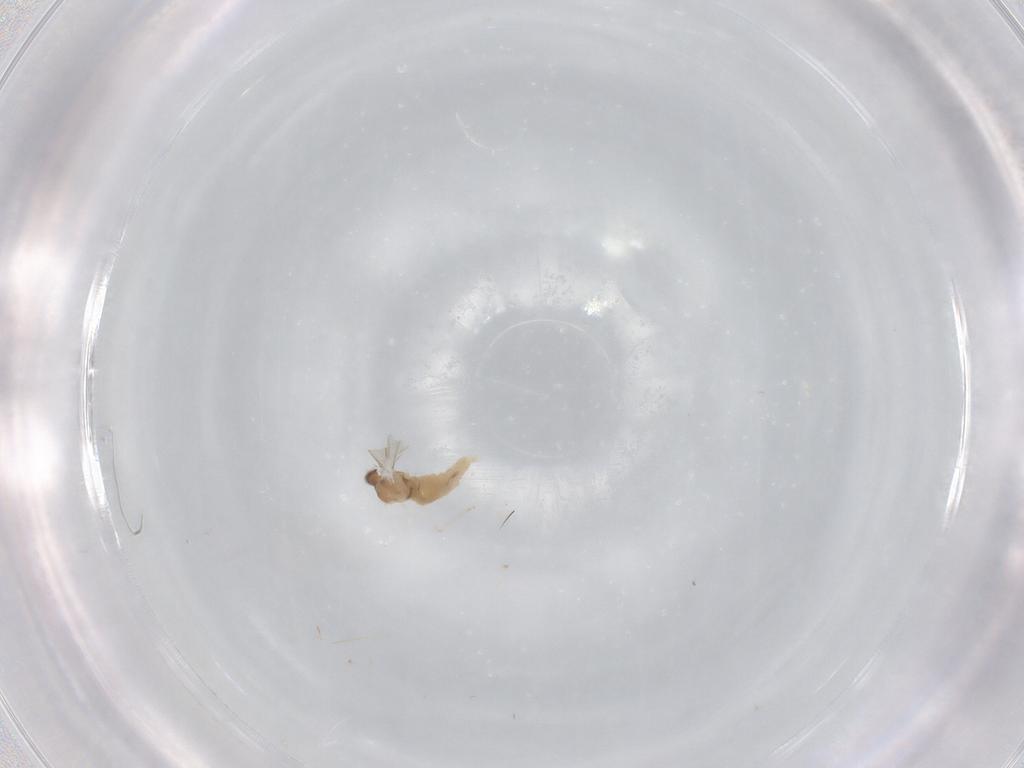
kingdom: Animalia
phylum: Arthropoda
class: Insecta
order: Diptera
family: Cecidomyiidae
